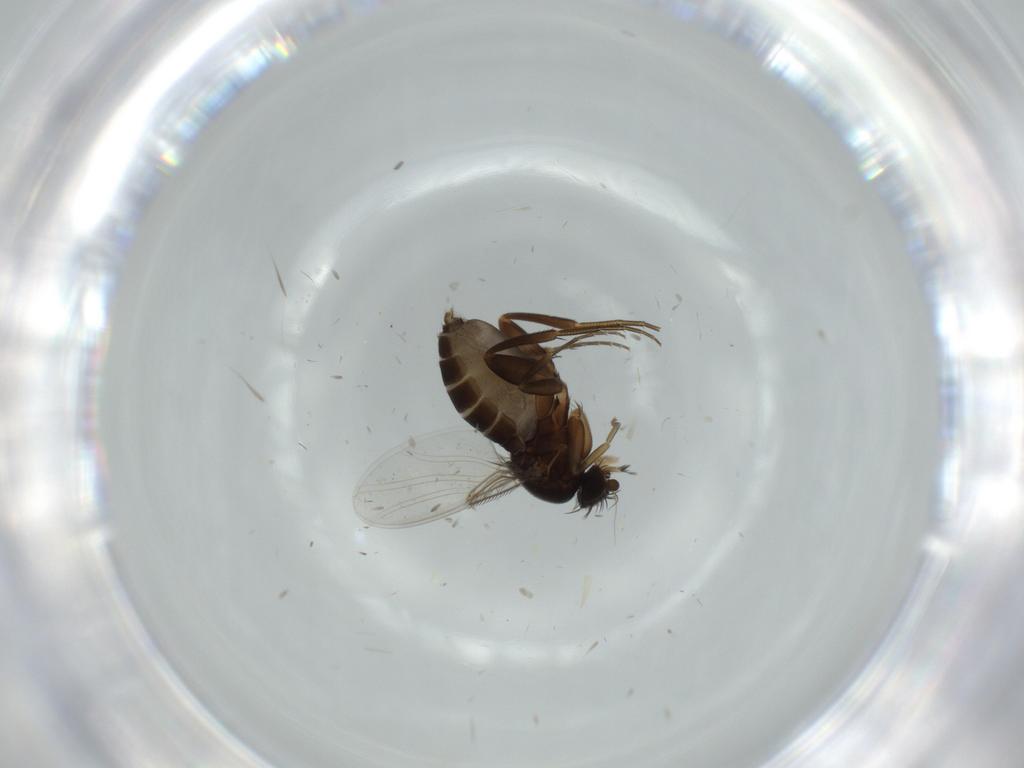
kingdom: Animalia
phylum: Arthropoda
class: Insecta
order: Diptera
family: Phoridae
